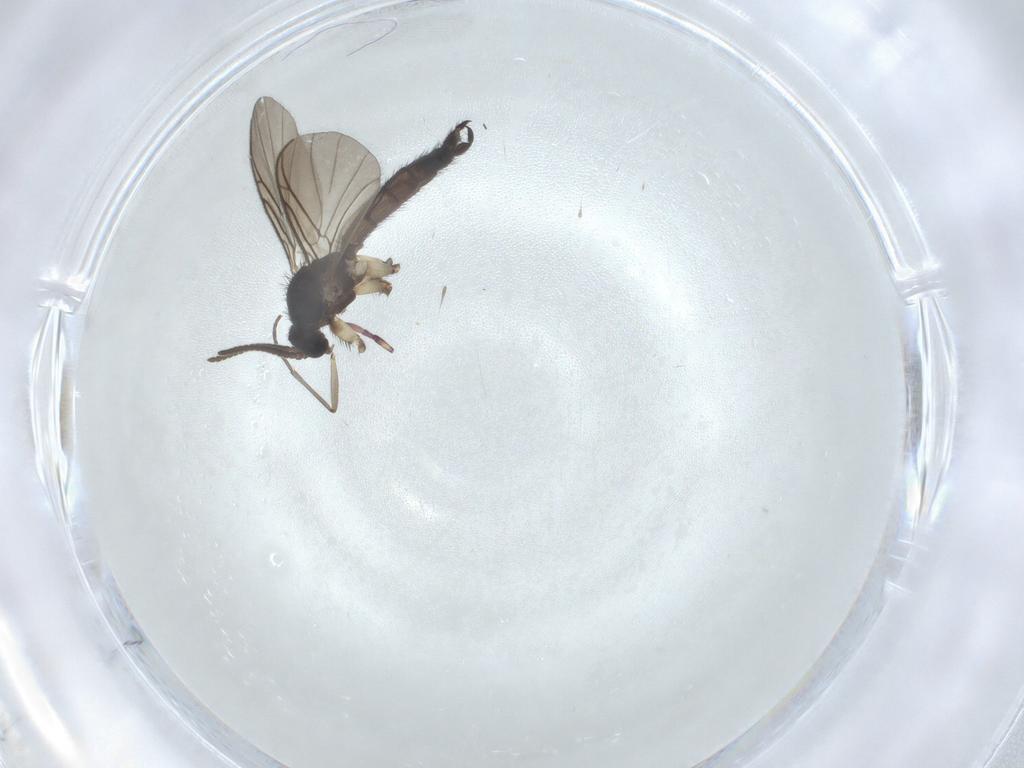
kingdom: Animalia
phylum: Arthropoda
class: Insecta
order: Diptera
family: Keroplatidae
